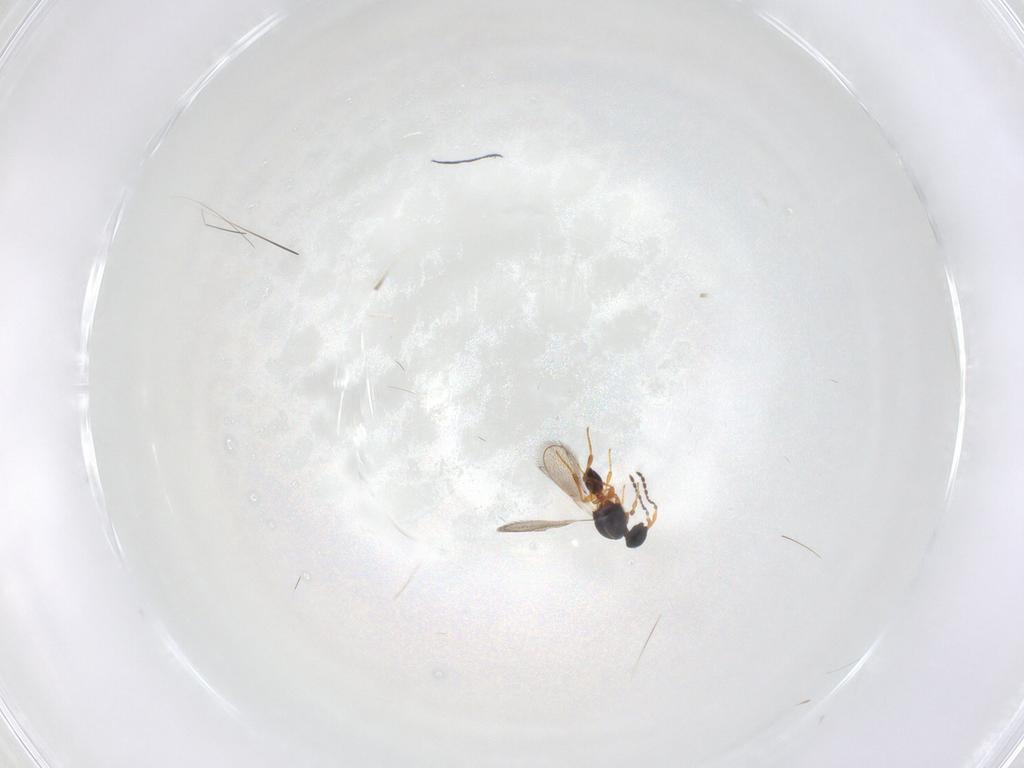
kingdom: Animalia
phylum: Arthropoda
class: Insecta
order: Hymenoptera
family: Platygastridae
